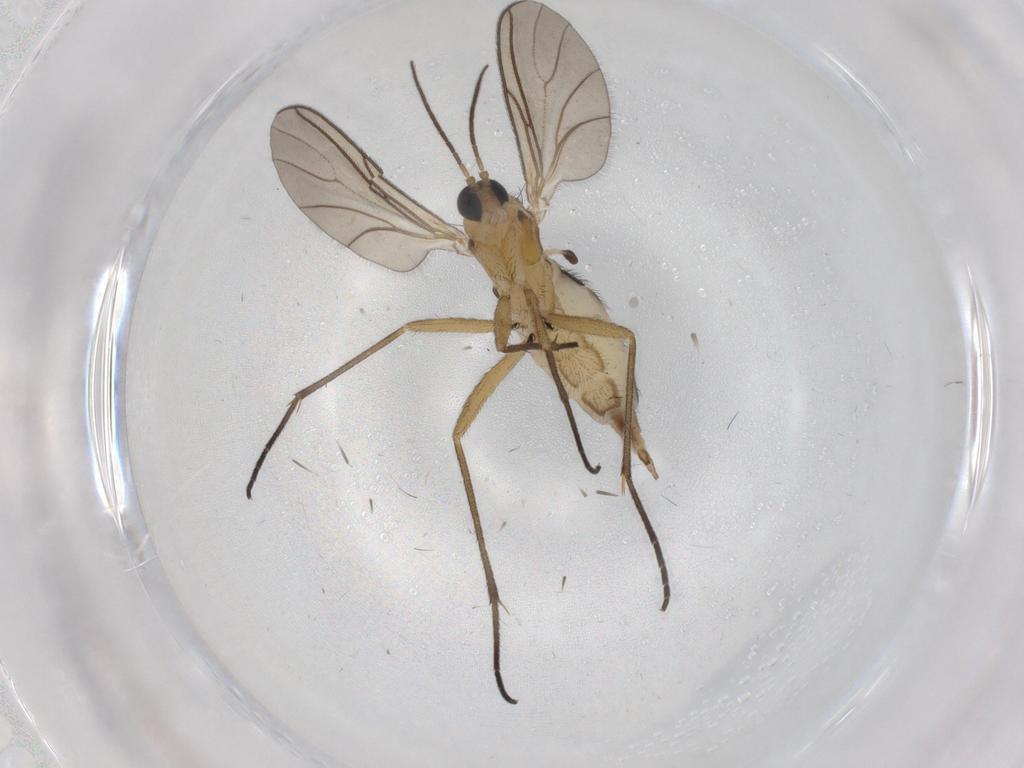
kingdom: Animalia
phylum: Arthropoda
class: Insecta
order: Diptera
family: Sciaridae
